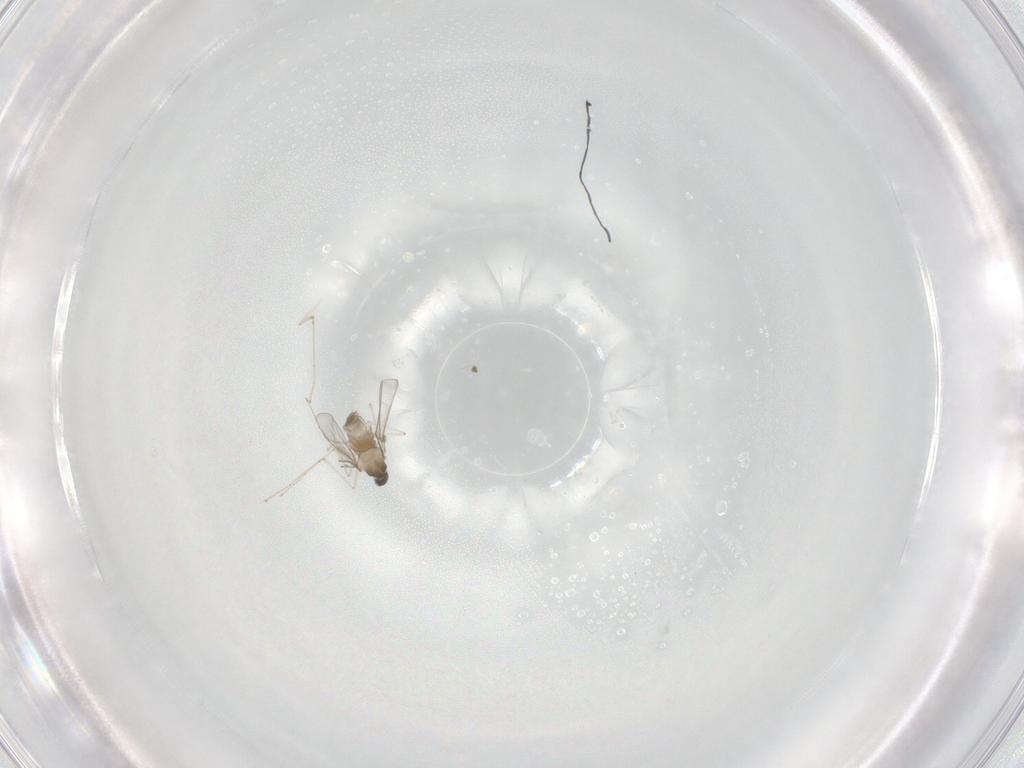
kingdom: Animalia
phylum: Arthropoda
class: Insecta
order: Diptera
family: Cecidomyiidae
